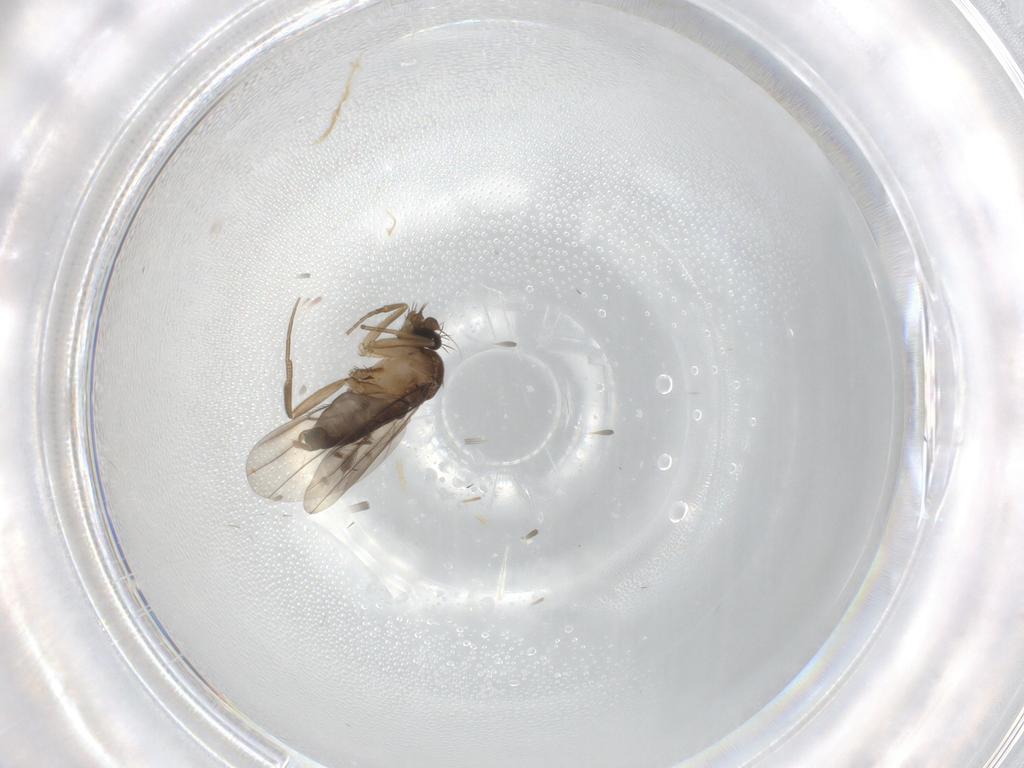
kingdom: Animalia
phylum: Arthropoda
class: Insecta
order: Diptera
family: Phoridae
